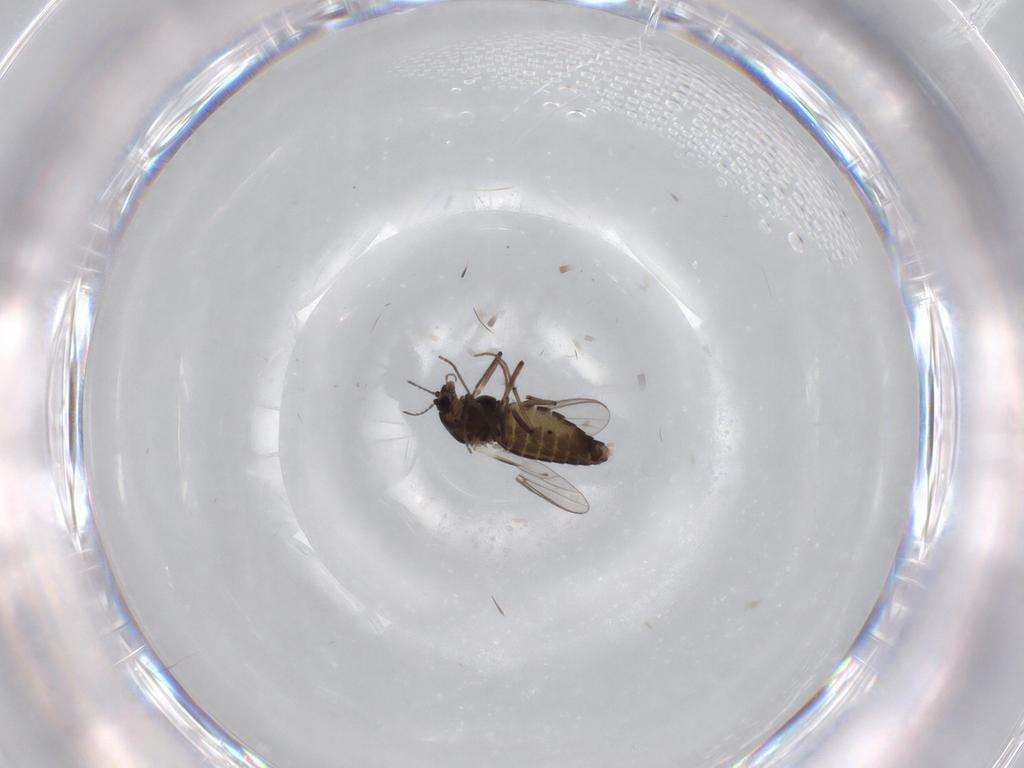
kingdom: Animalia
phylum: Arthropoda
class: Insecta
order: Diptera
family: Chironomidae
